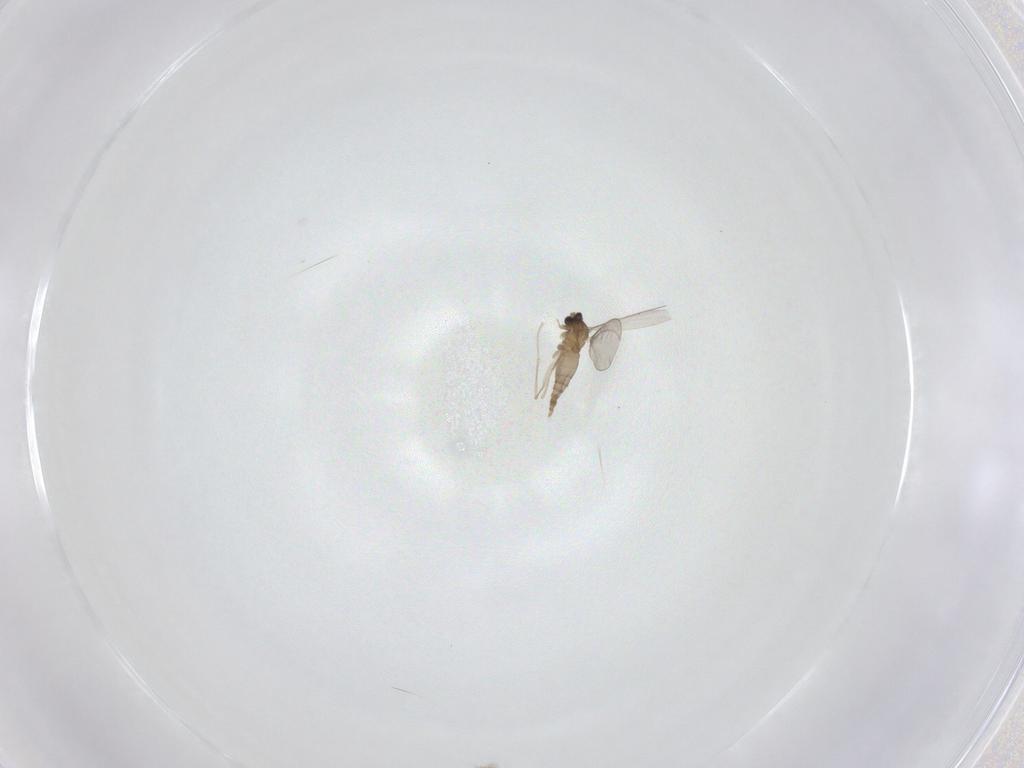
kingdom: Animalia
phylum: Arthropoda
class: Insecta
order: Diptera
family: Cecidomyiidae
